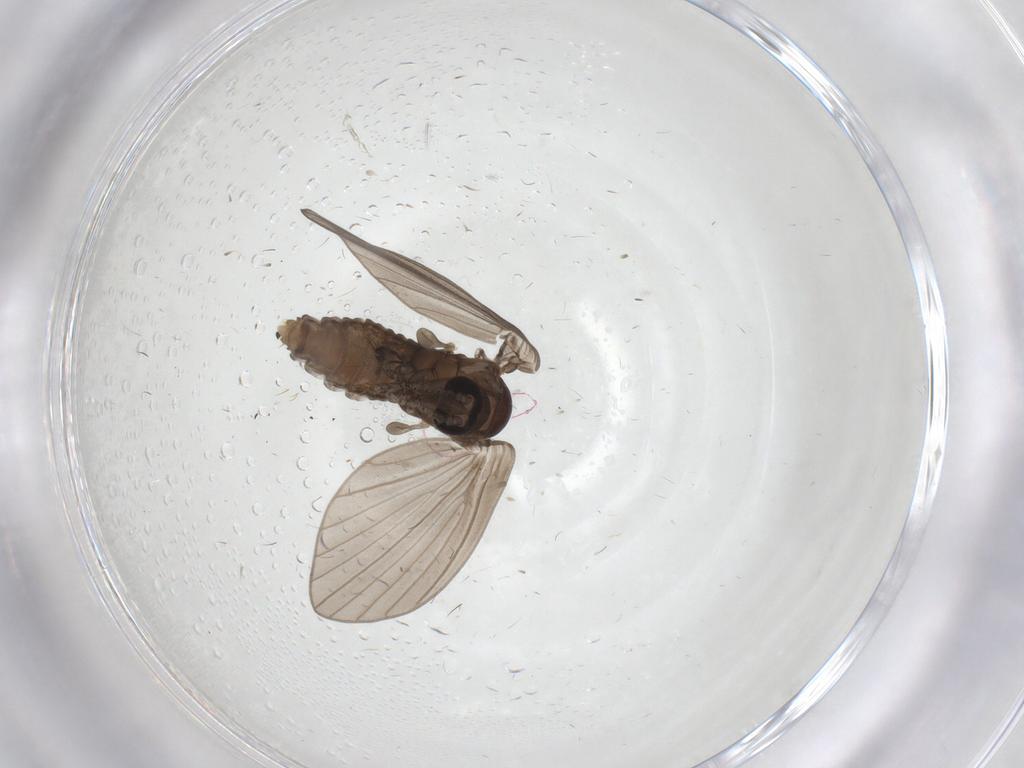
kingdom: Animalia
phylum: Arthropoda
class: Insecta
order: Diptera
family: Psychodidae
